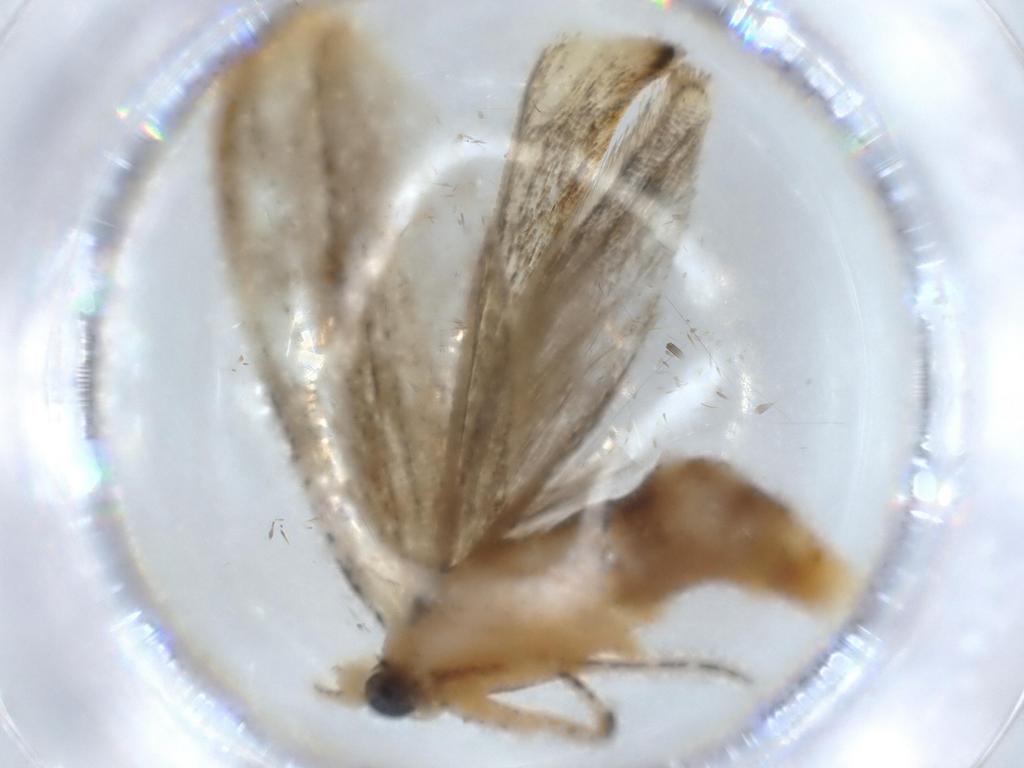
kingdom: Animalia
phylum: Arthropoda
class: Insecta
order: Lepidoptera
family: Tineidae
